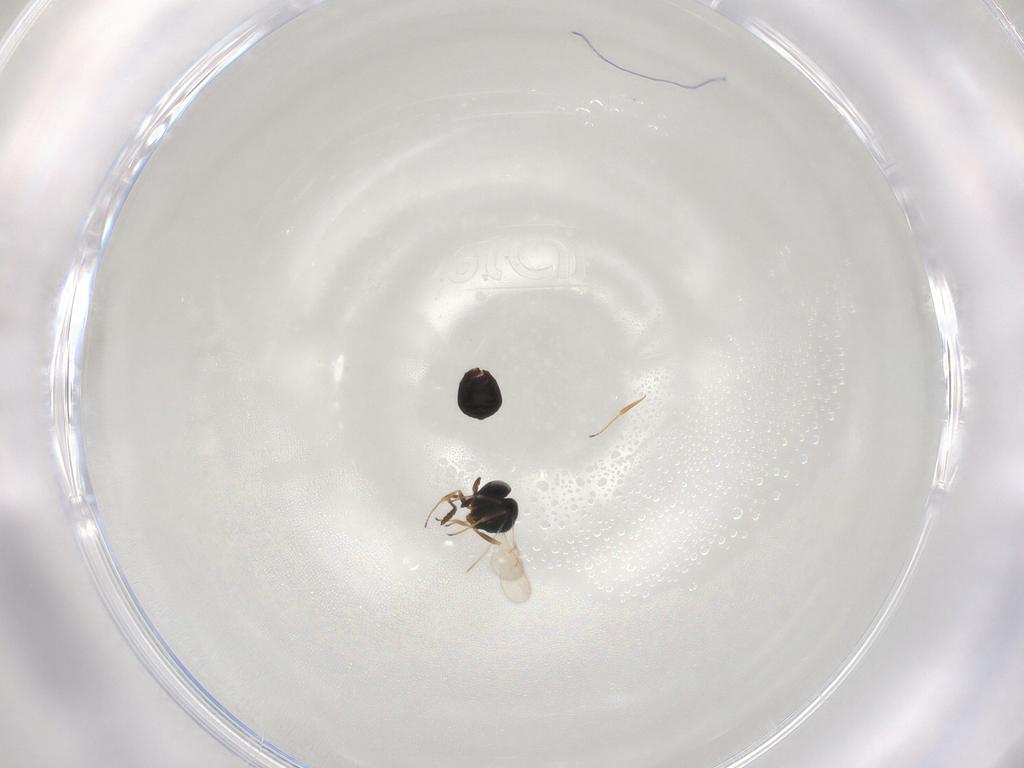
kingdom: Animalia
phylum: Arthropoda
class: Insecta
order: Hymenoptera
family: Scelionidae
